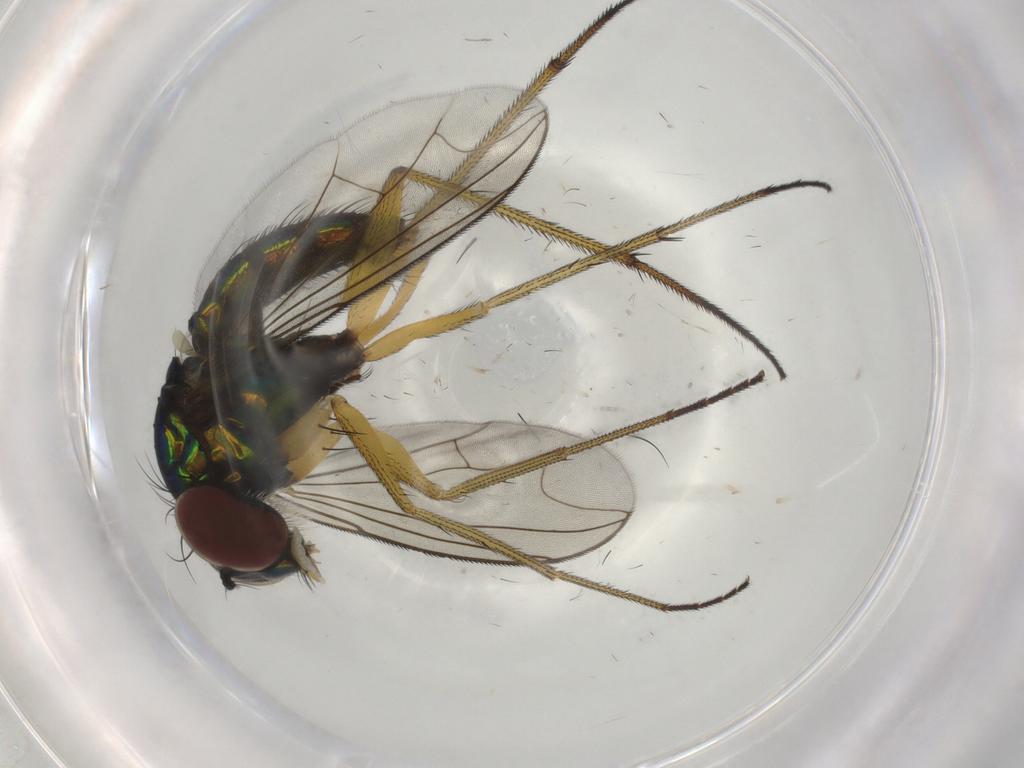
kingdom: Animalia
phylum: Arthropoda
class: Insecta
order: Diptera
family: Dolichopodidae
